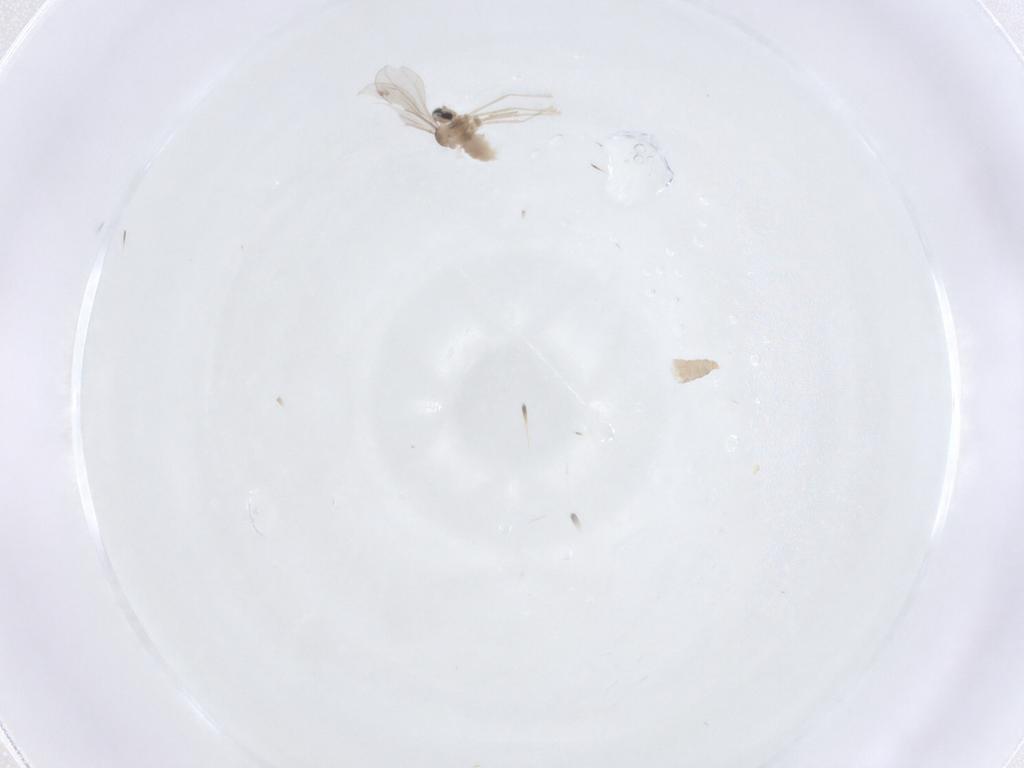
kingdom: Animalia
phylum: Arthropoda
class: Insecta
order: Diptera
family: Cecidomyiidae
